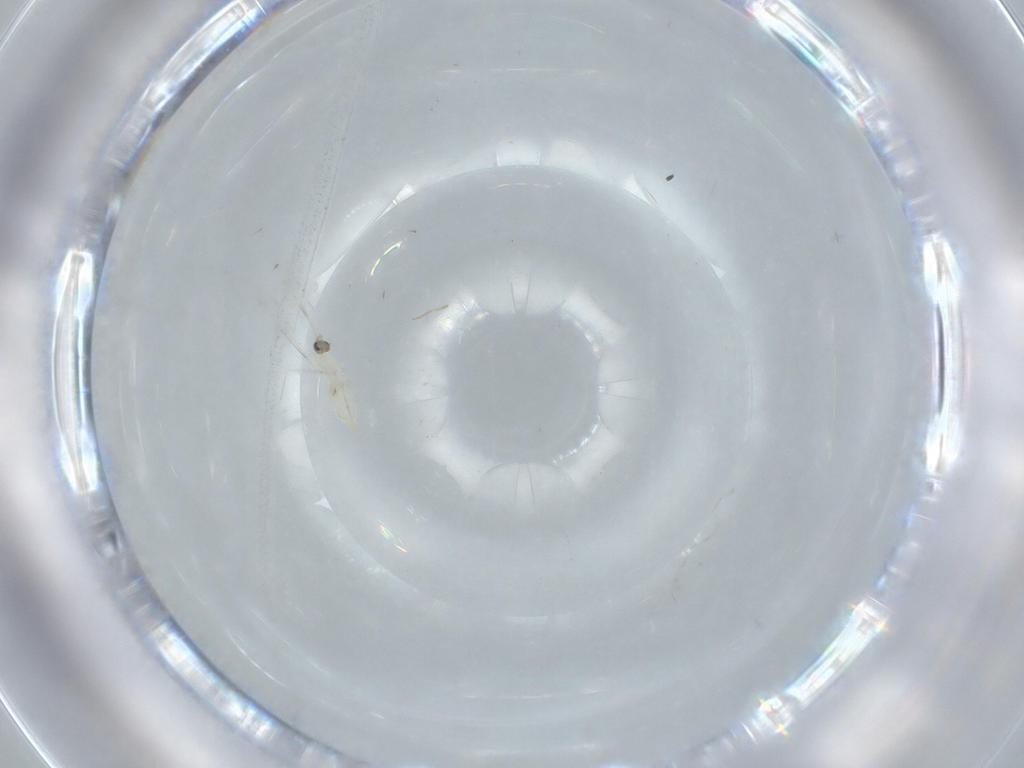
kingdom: Animalia
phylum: Arthropoda
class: Insecta
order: Diptera
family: Cecidomyiidae
